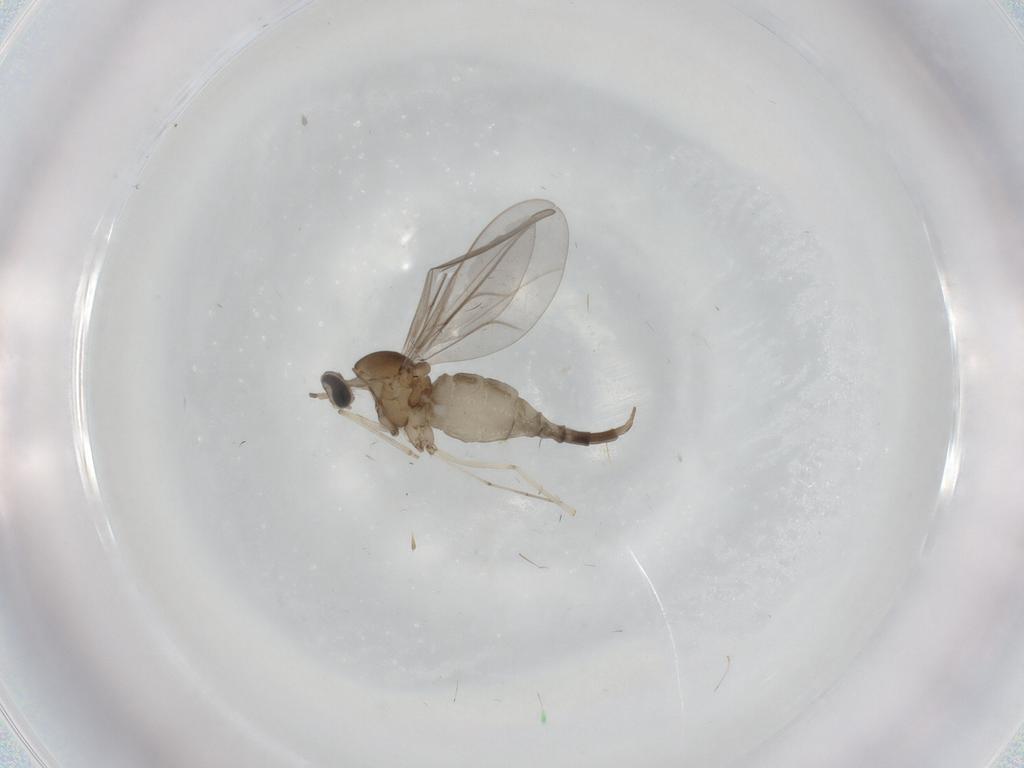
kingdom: Animalia
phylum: Arthropoda
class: Insecta
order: Diptera
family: Cecidomyiidae
